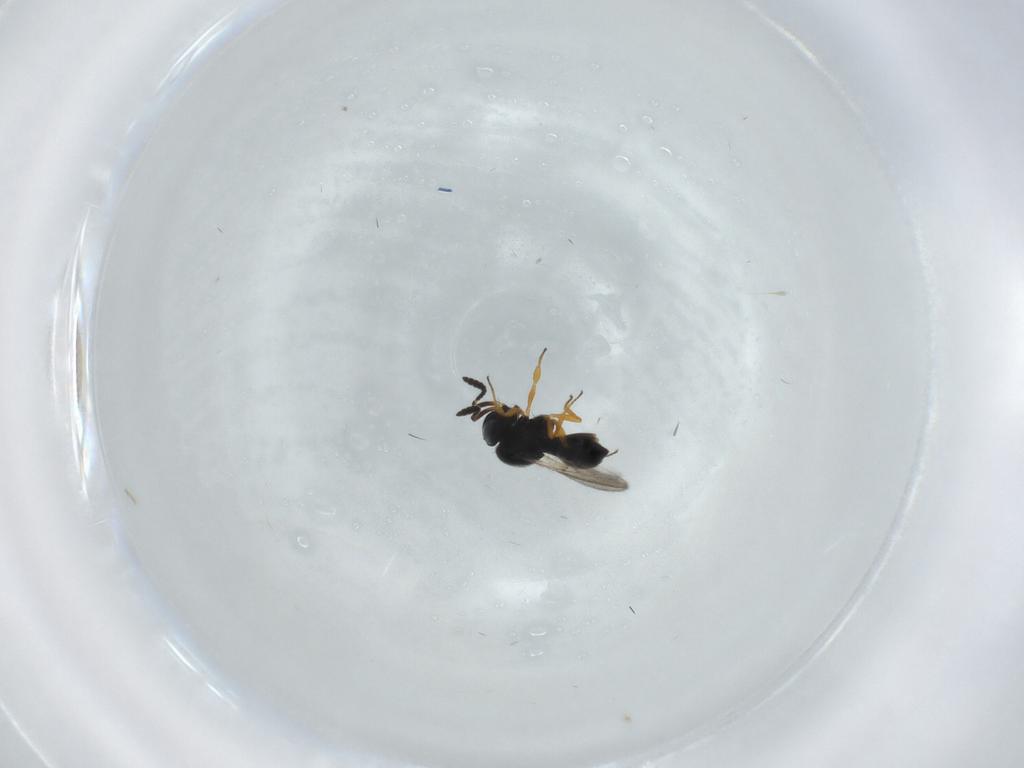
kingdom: Animalia
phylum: Arthropoda
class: Insecta
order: Hymenoptera
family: Scelionidae
